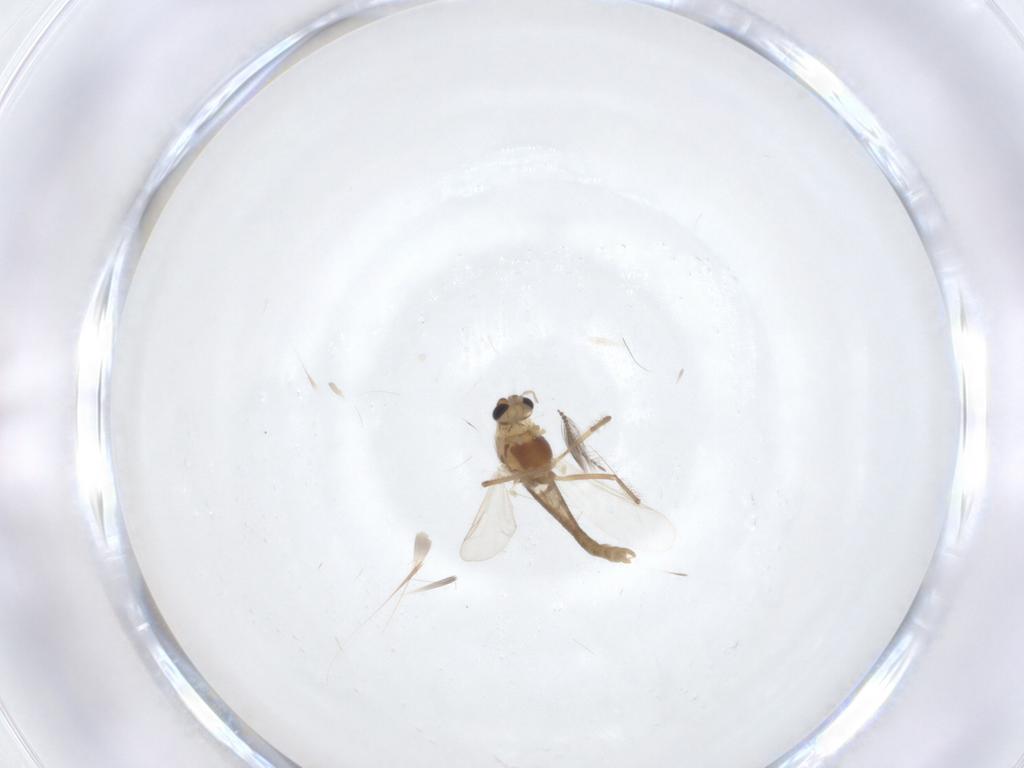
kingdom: Animalia
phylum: Arthropoda
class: Insecta
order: Diptera
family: Chironomidae
